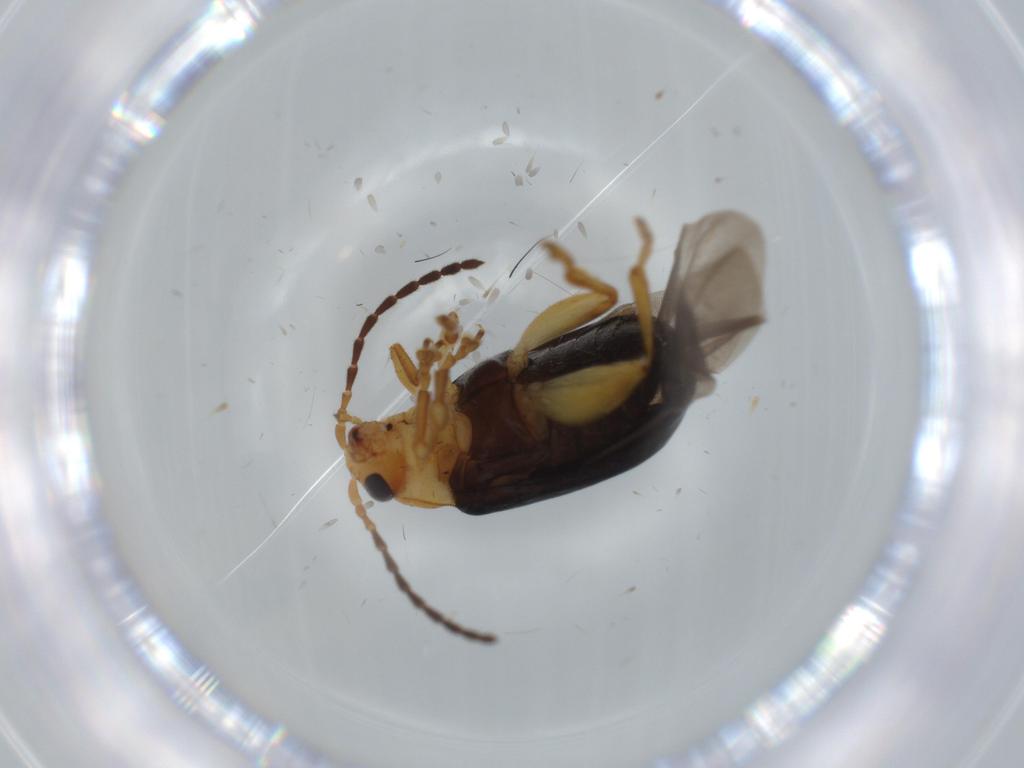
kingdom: Animalia
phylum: Arthropoda
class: Insecta
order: Coleoptera
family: Chrysomelidae
